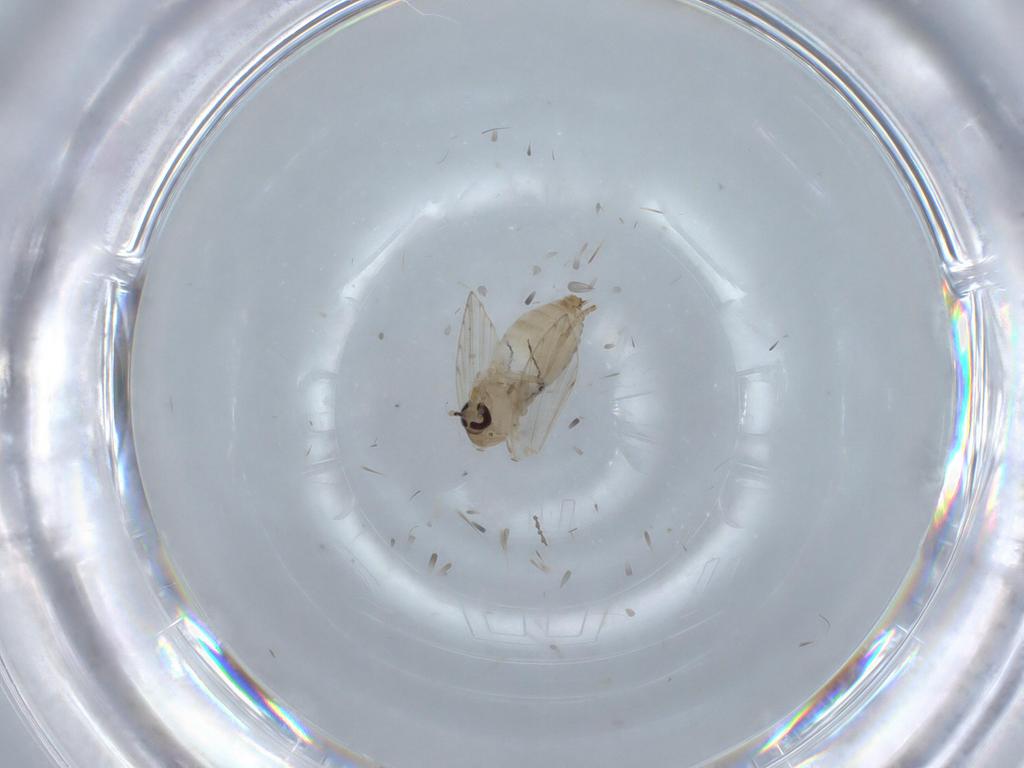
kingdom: Animalia
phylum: Arthropoda
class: Insecta
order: Diptera
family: Psychodidae
